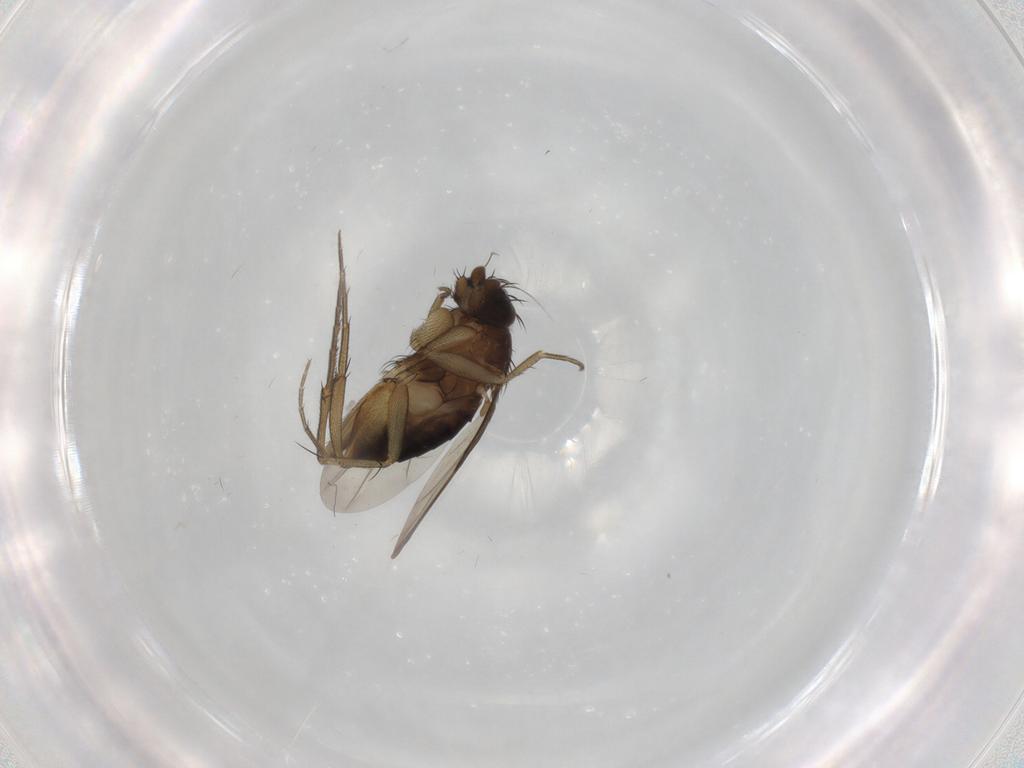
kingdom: Animalia
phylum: Arthropoda
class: Insecta
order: Diptera
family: Phoridae
